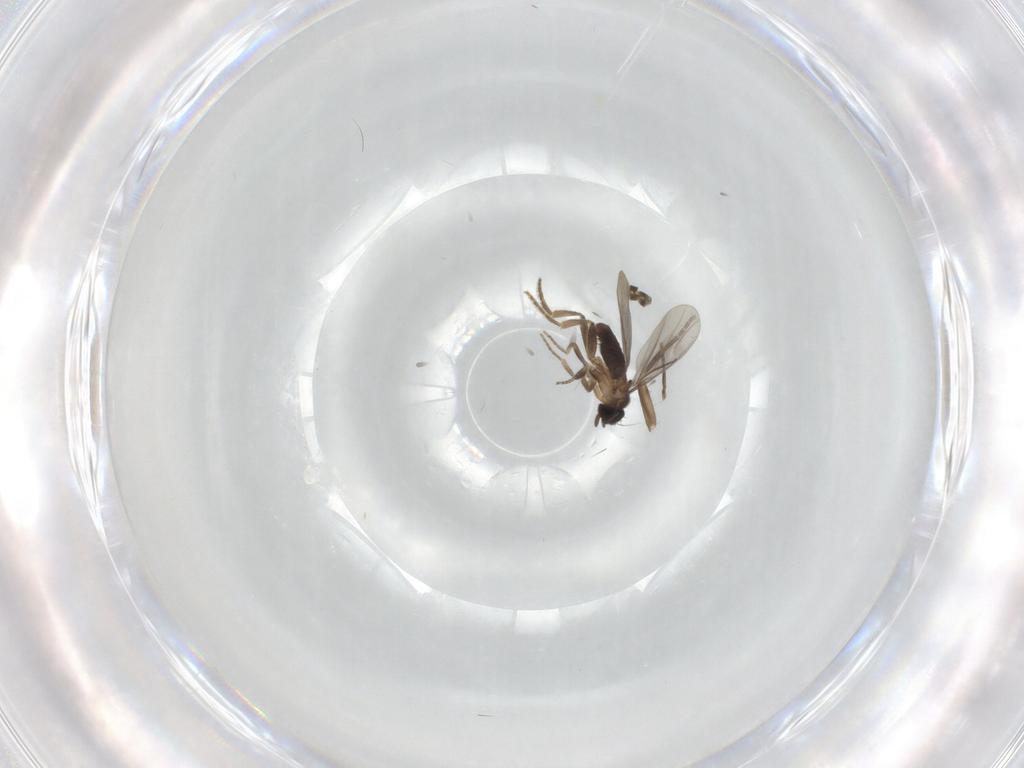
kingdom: Animalia
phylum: Arthropoda
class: Insecta
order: Diptera
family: Phoridae
